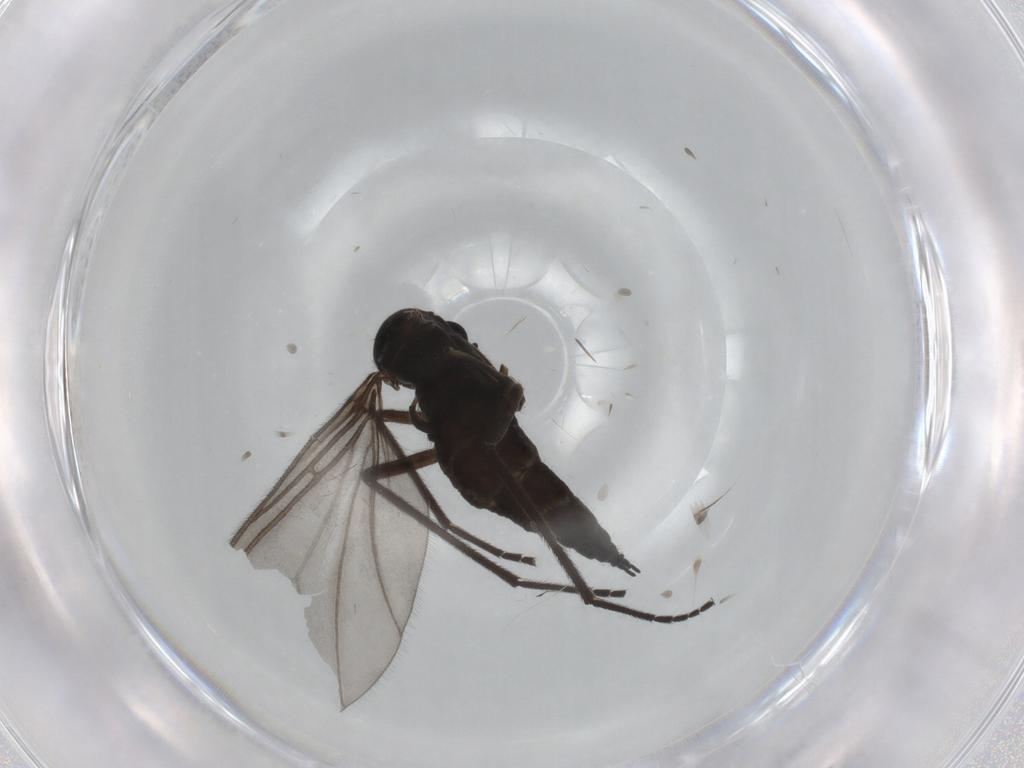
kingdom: Animalia
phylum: Arthropoda
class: Insecta
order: Diptera
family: Sciaridae
